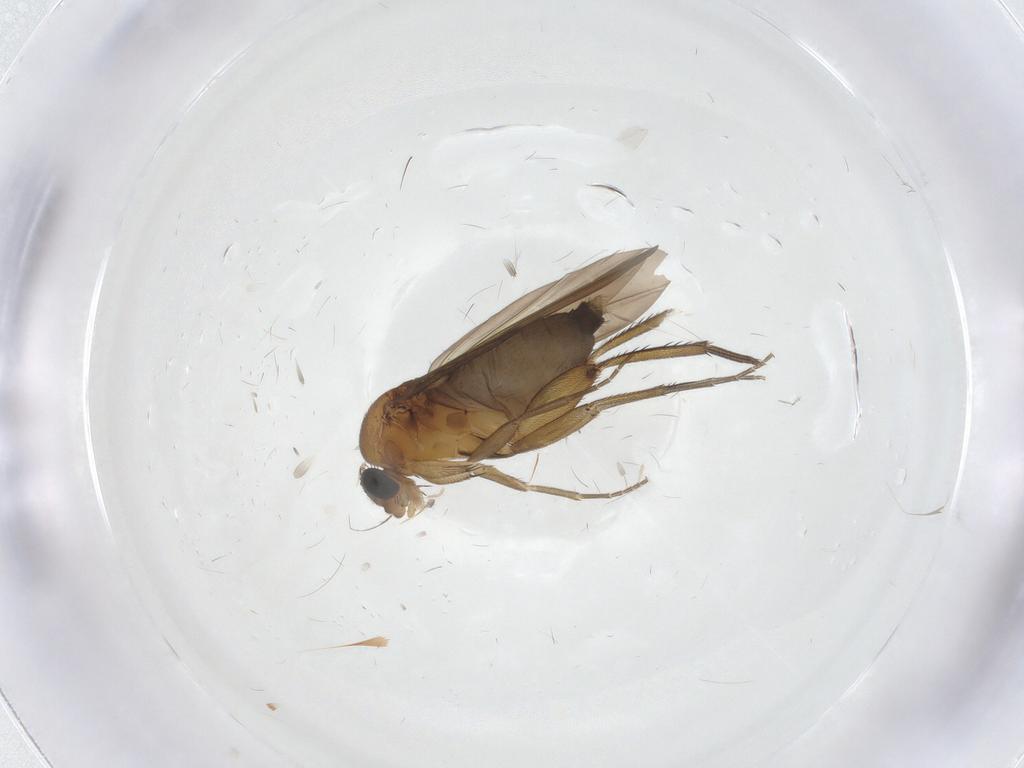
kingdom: Animalia
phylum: Arthropoda
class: Insecta
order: Diptera
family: Phoridae
